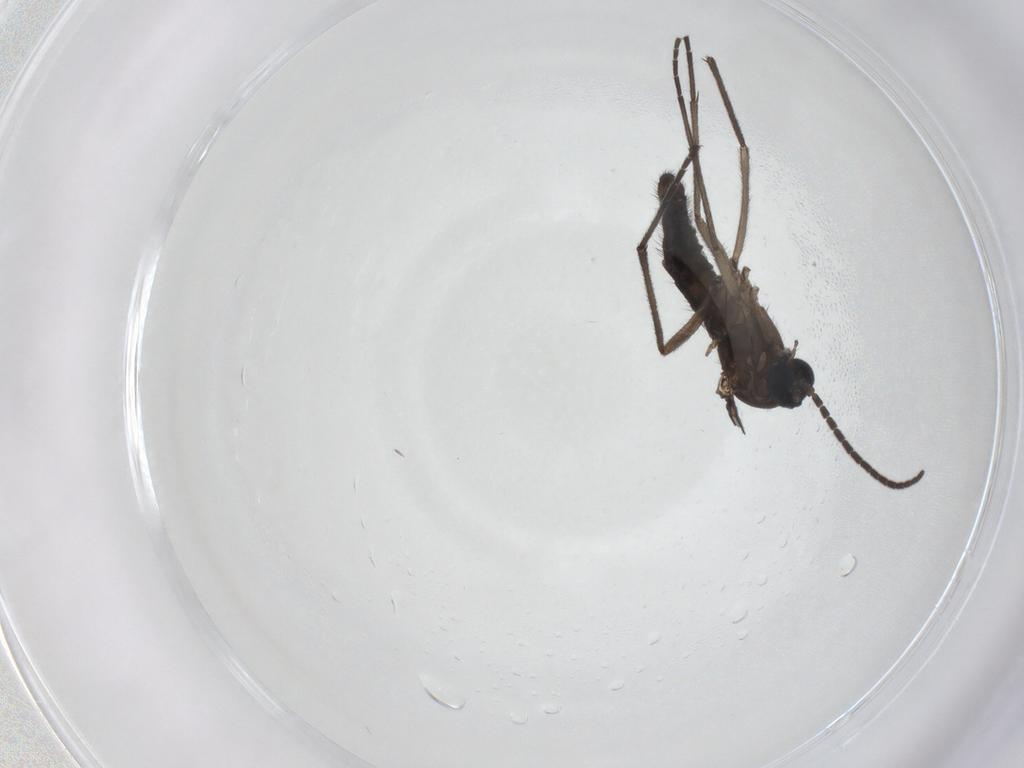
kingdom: Animalia
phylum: Arthropoda
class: Insecta
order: Diptera
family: Sciaridae
